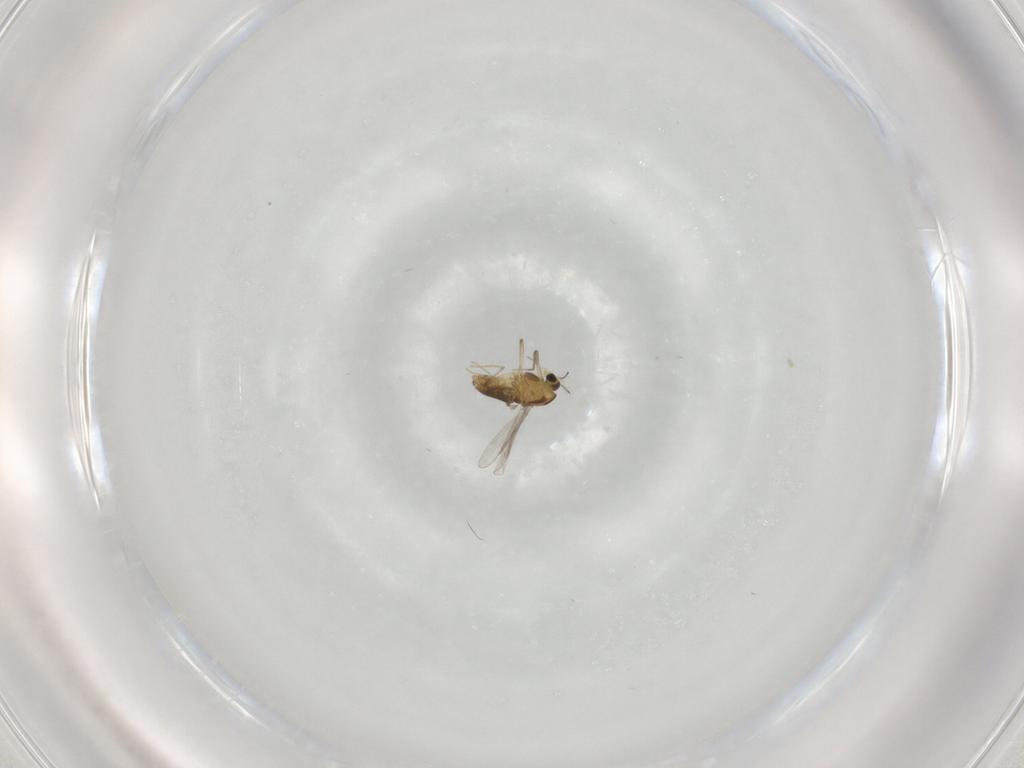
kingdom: Animalia
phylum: Arthropoda
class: Insecta
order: Diptera
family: Chironomidae
